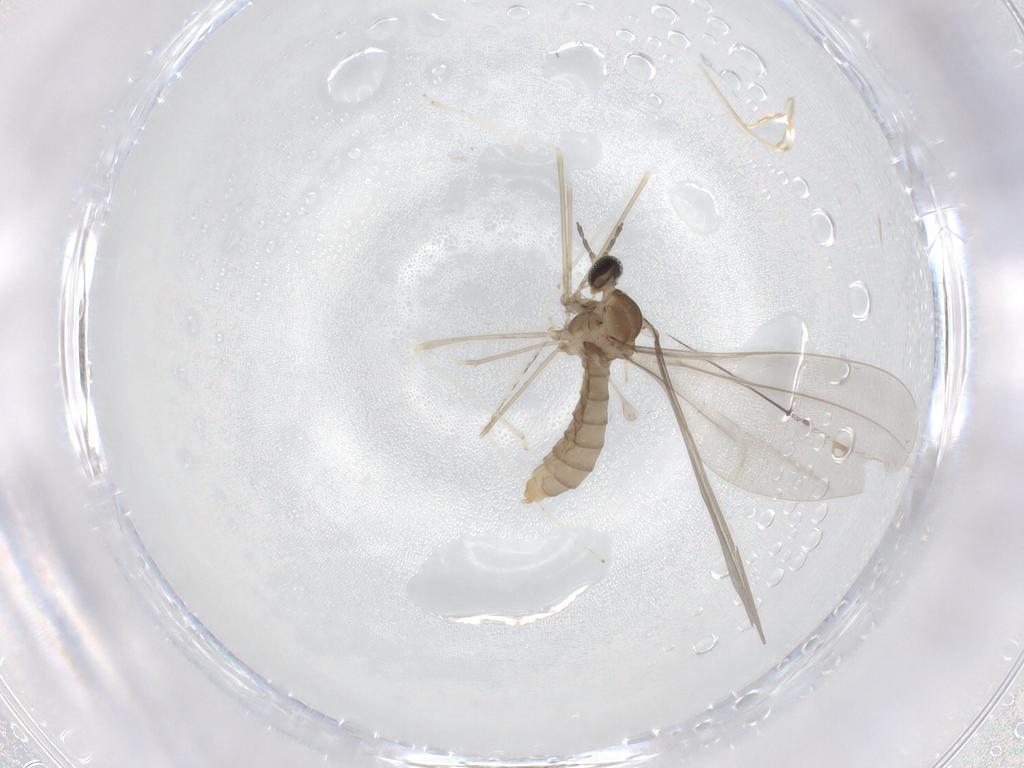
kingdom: Animalia
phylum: Arthropoda
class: Insecta
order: Diptera
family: Cecidomyiidae
